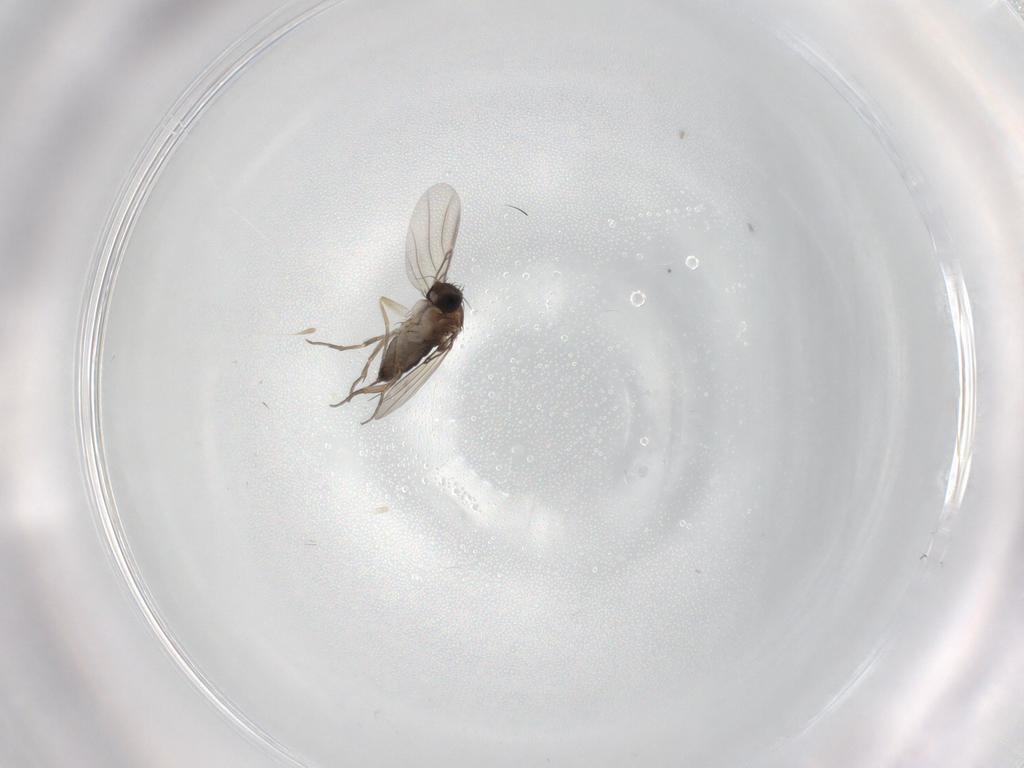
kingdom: Animalia
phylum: Arthropoda
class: Insecta
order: Diptera
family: Phoridae
